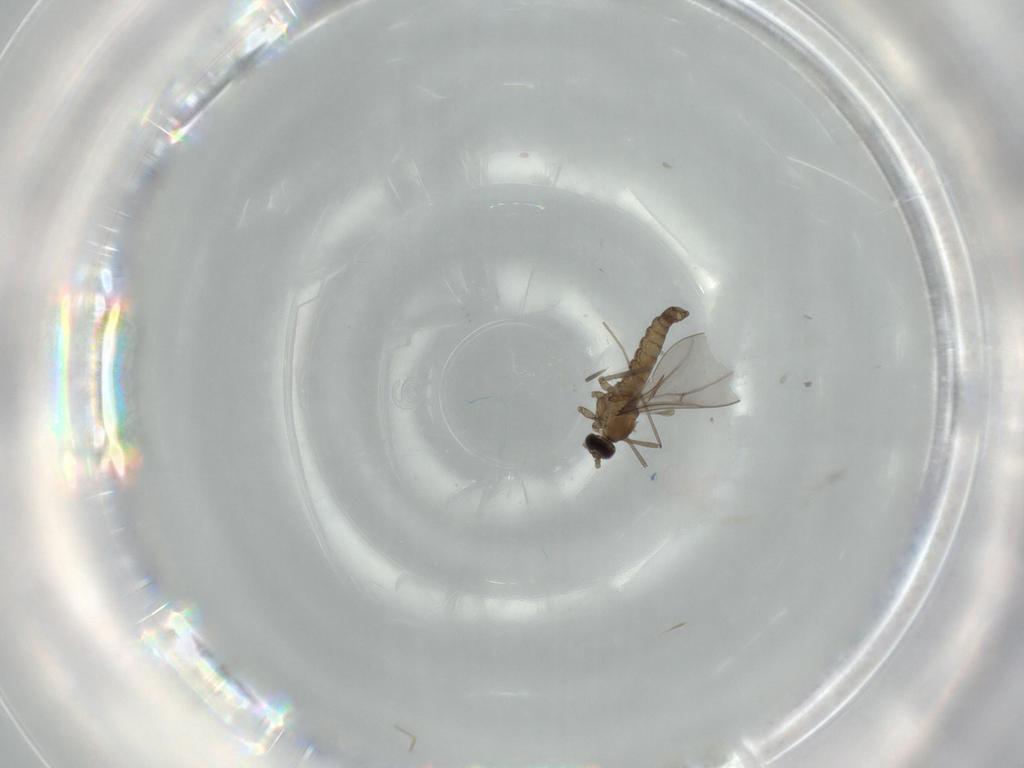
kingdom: Animalia
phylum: Arthropoda
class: Insecta
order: Diptera
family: Cecidomyiidae
